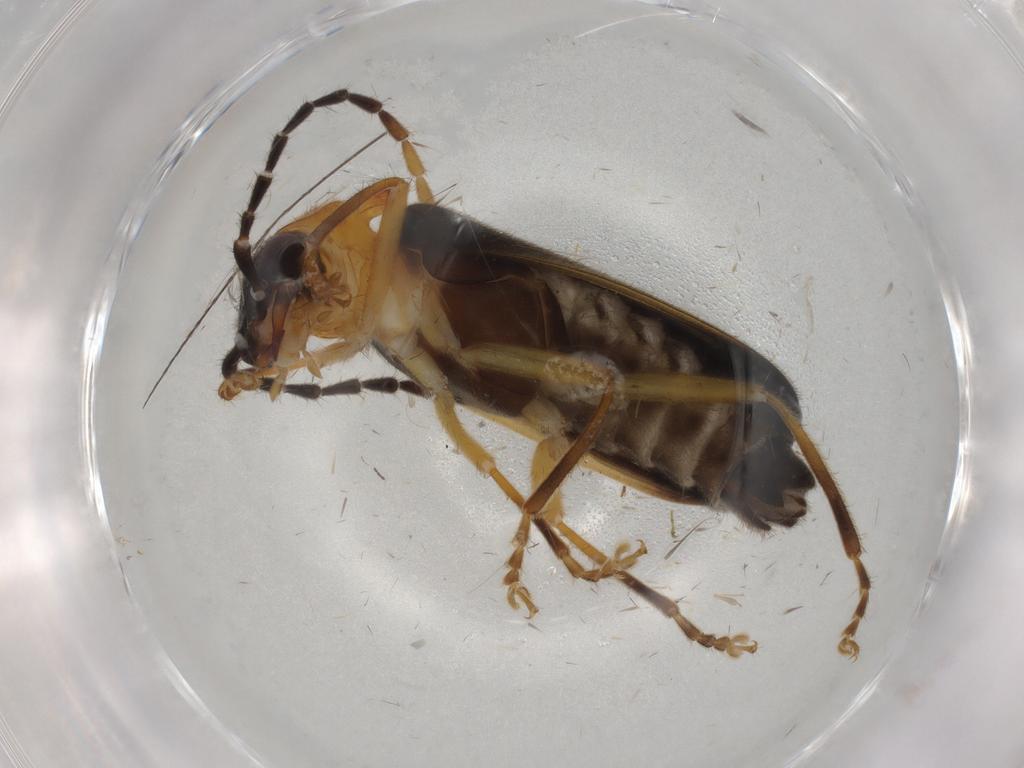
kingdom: Animalia
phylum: Arthropoda
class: Insecta
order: Coleoptera
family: Cantharidae
